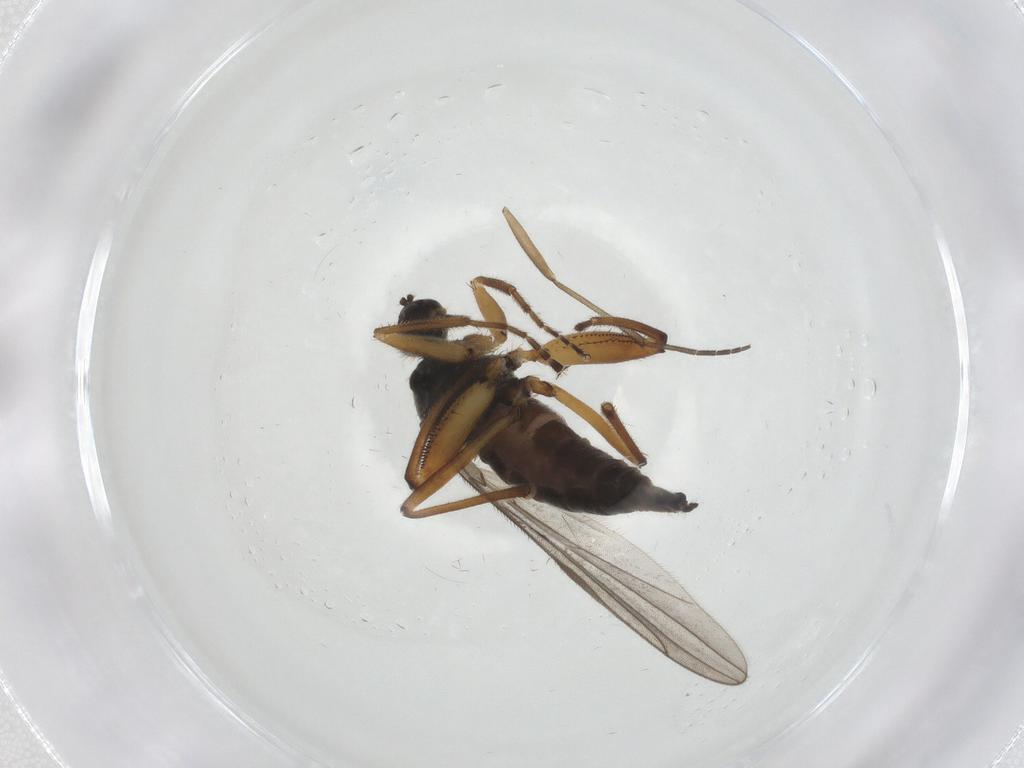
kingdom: Animalia
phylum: Arthropoda
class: Insecta
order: Diptera
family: Hybotidae
